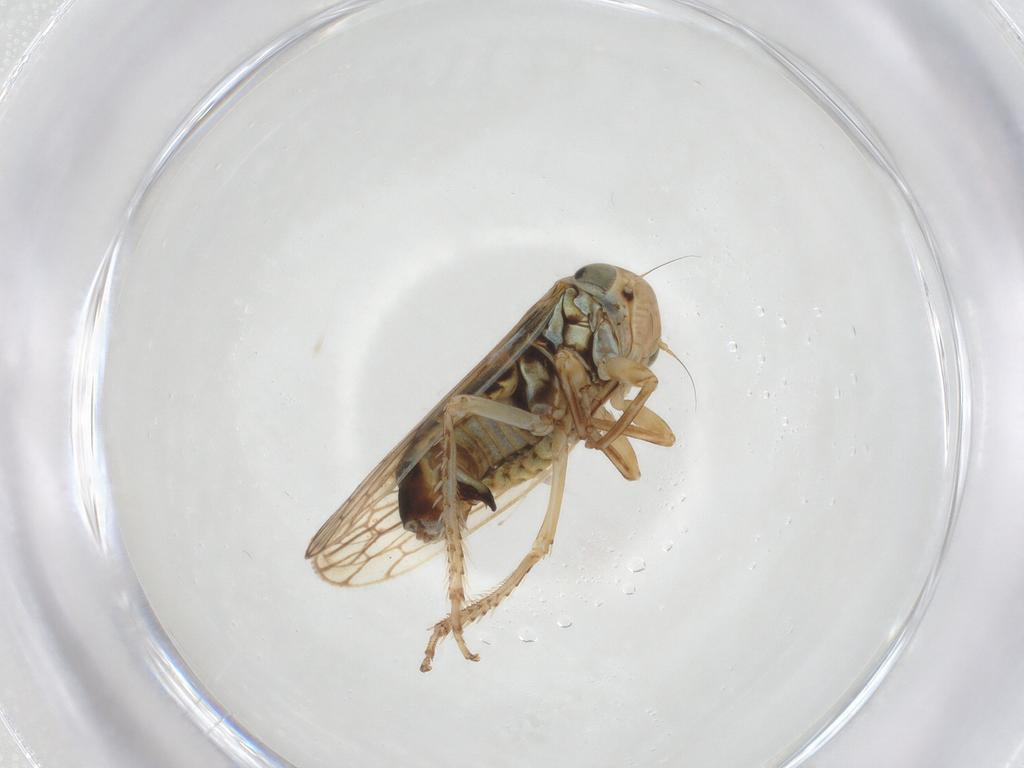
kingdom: Animalia
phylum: Arthropoda
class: Insecta
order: Hemiptera
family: Cicadellidae
